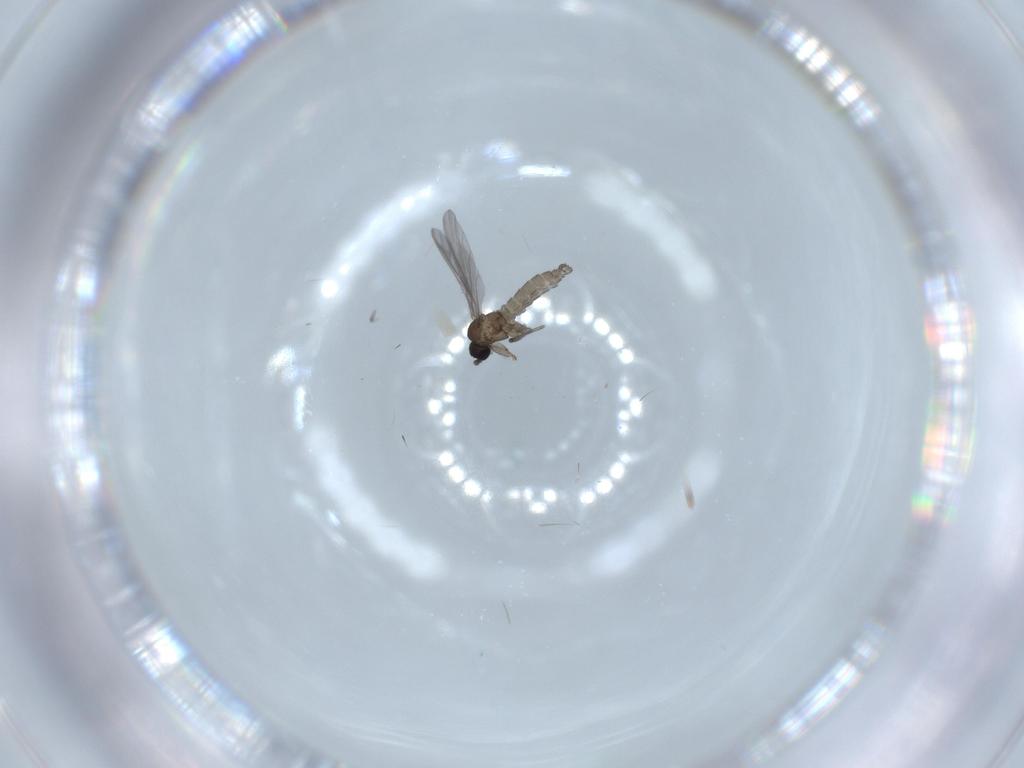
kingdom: Animalia
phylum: Arthropoda
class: Insecta
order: Diptera
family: Sciaridae
